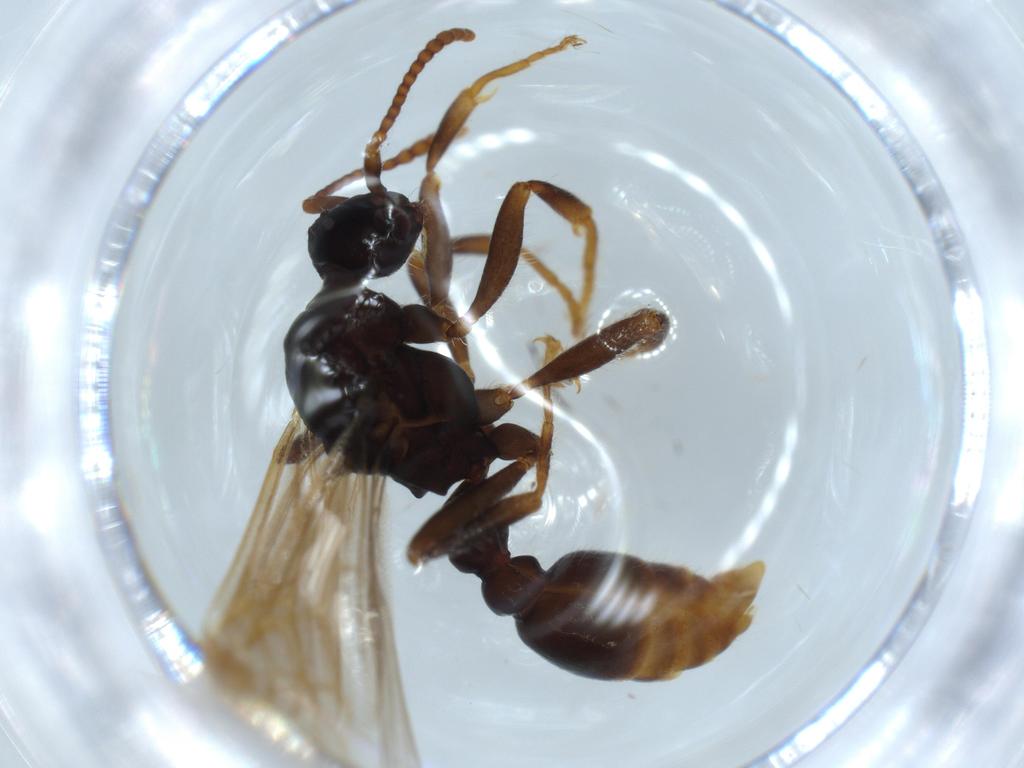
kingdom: Animalia
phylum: Arthropoda
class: Insecta
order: Hymenoptera
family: Formicidae
